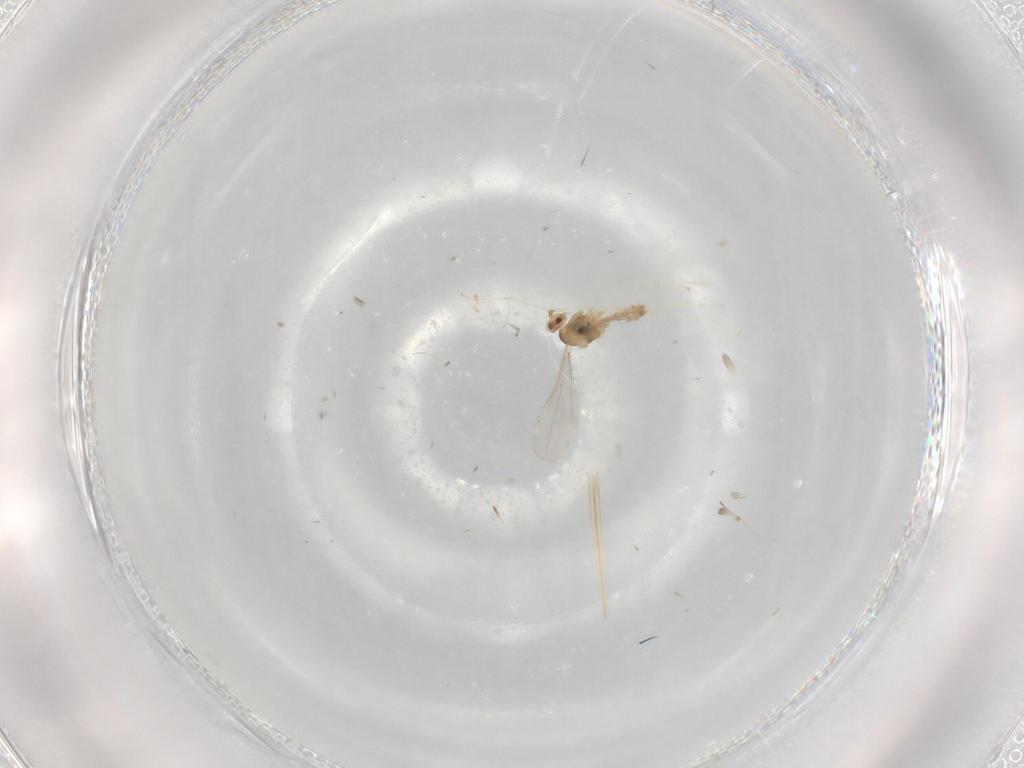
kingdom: Animalia
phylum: Arthropoda
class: Insecta
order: Diptera
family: Cecidomyiidae
